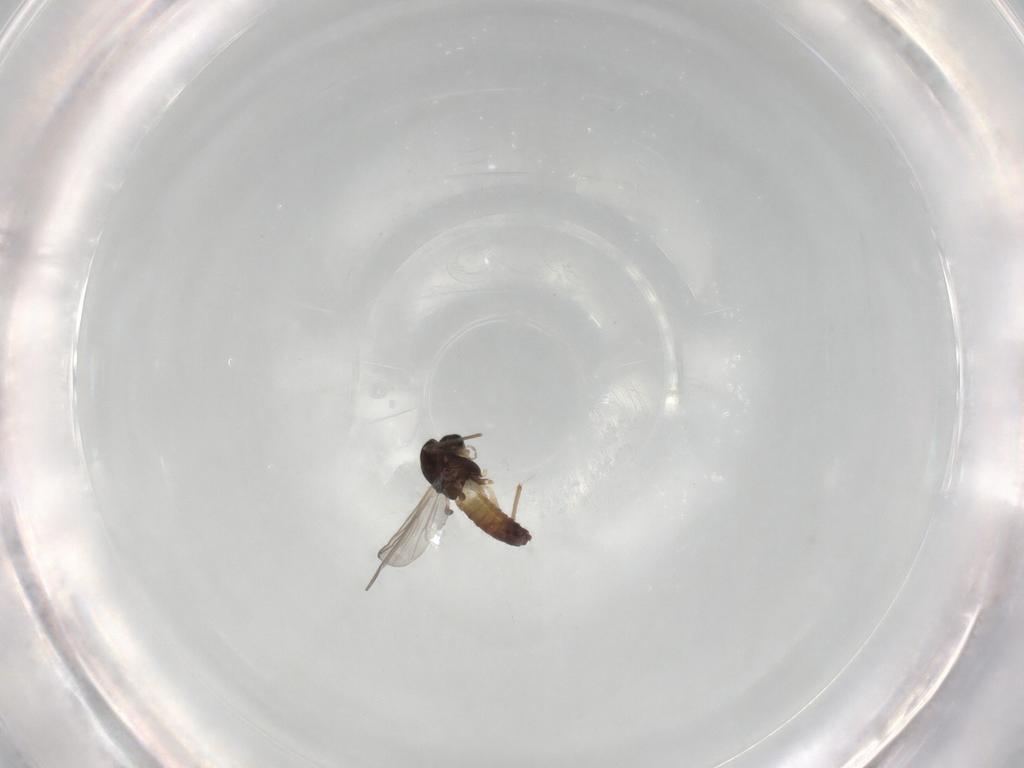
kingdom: Animalia
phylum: Arthropoda
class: Insecta
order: Diptera
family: Chironomidae
